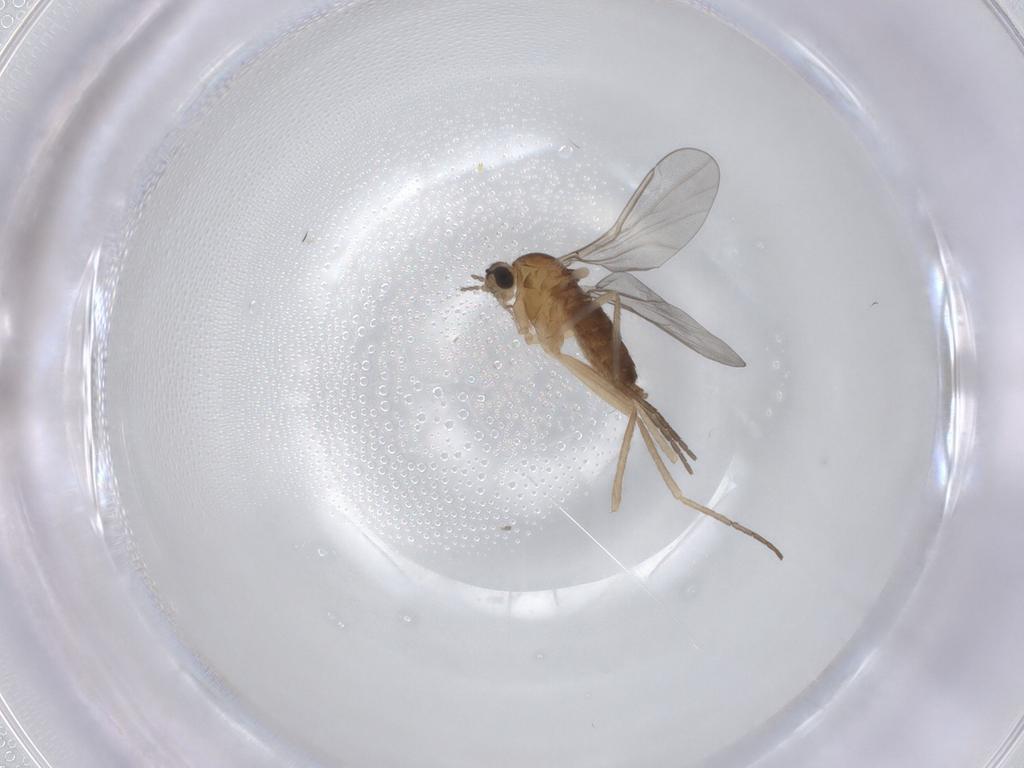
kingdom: Animalia
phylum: Arthropoda
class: Insecta
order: Diptera
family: Cecidomyiidae
